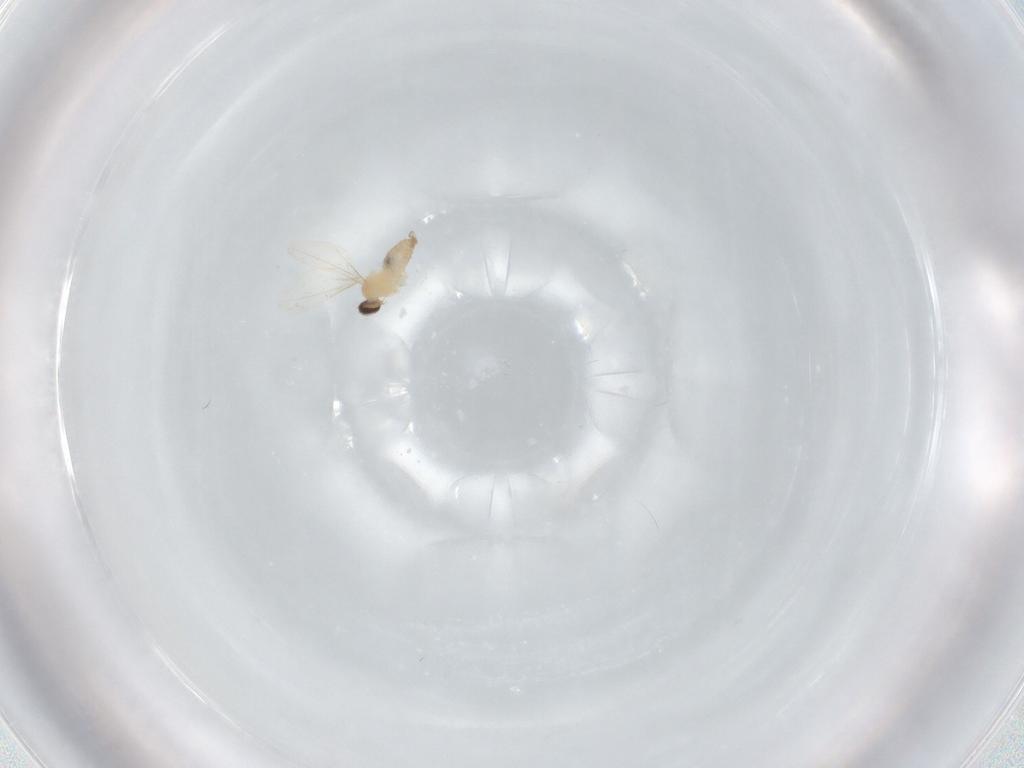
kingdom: Animalia
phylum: Arthropoda
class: Insecta
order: Diptera
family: Cecidomyiidae
